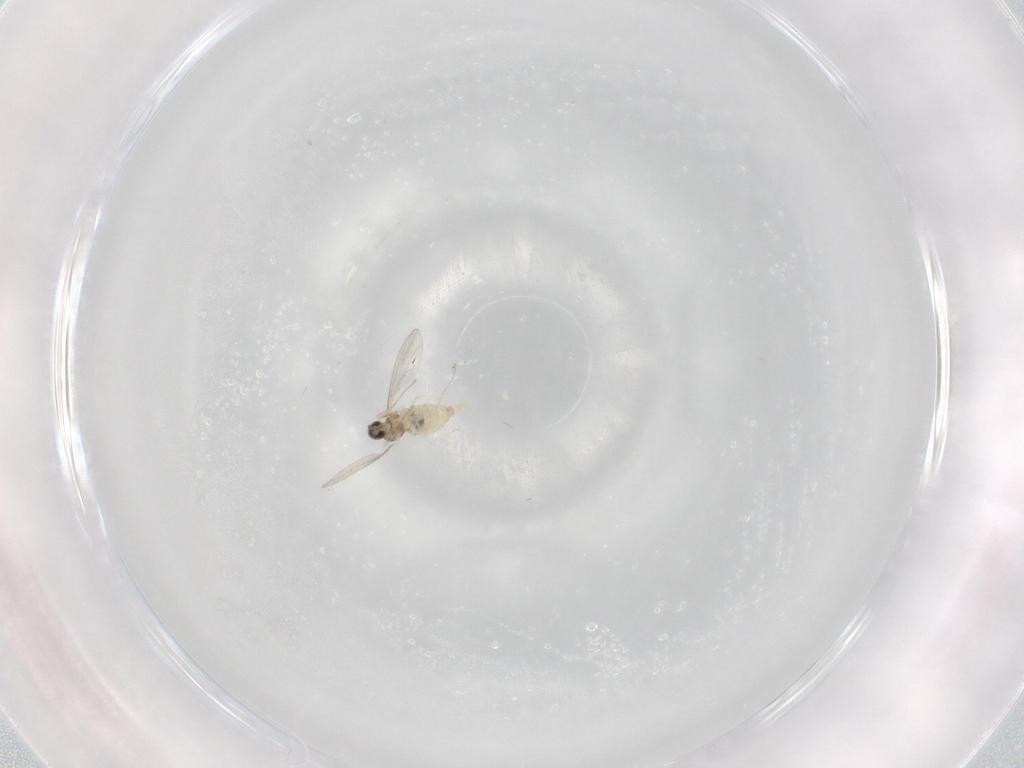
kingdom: Animalia
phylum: Arthropoda
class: Insecta
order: Diptera
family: Cecidomyiidae
